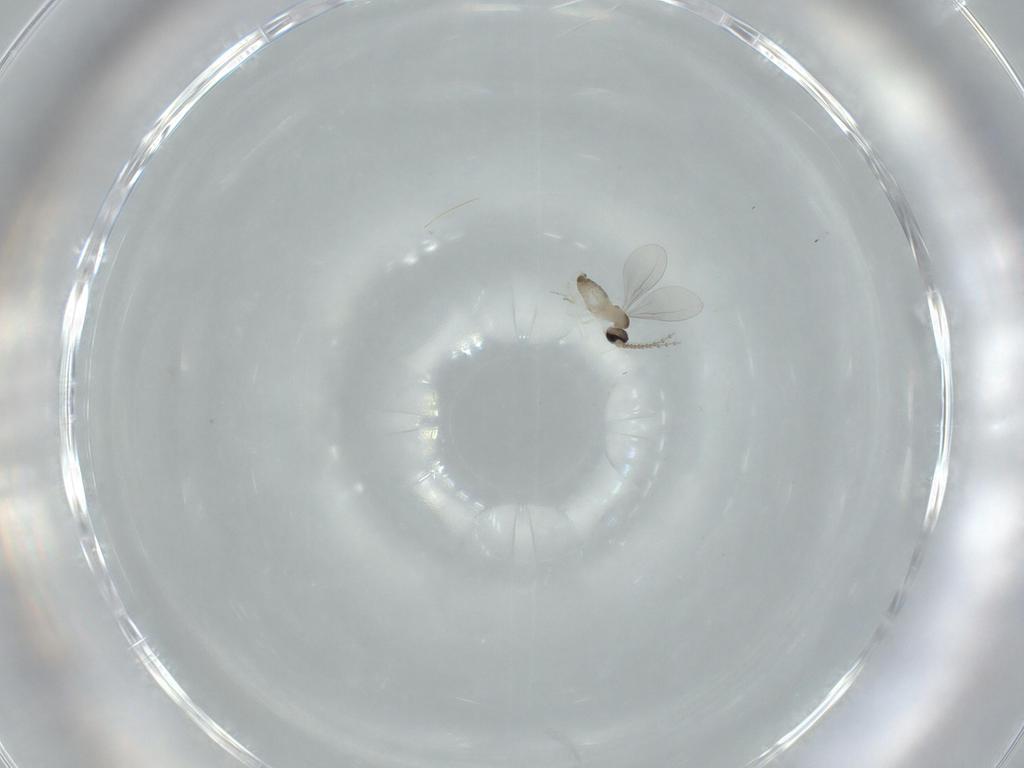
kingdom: Animalia
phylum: Arthropoda
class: Insecta
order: Diptera
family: Cecidomyiidae
